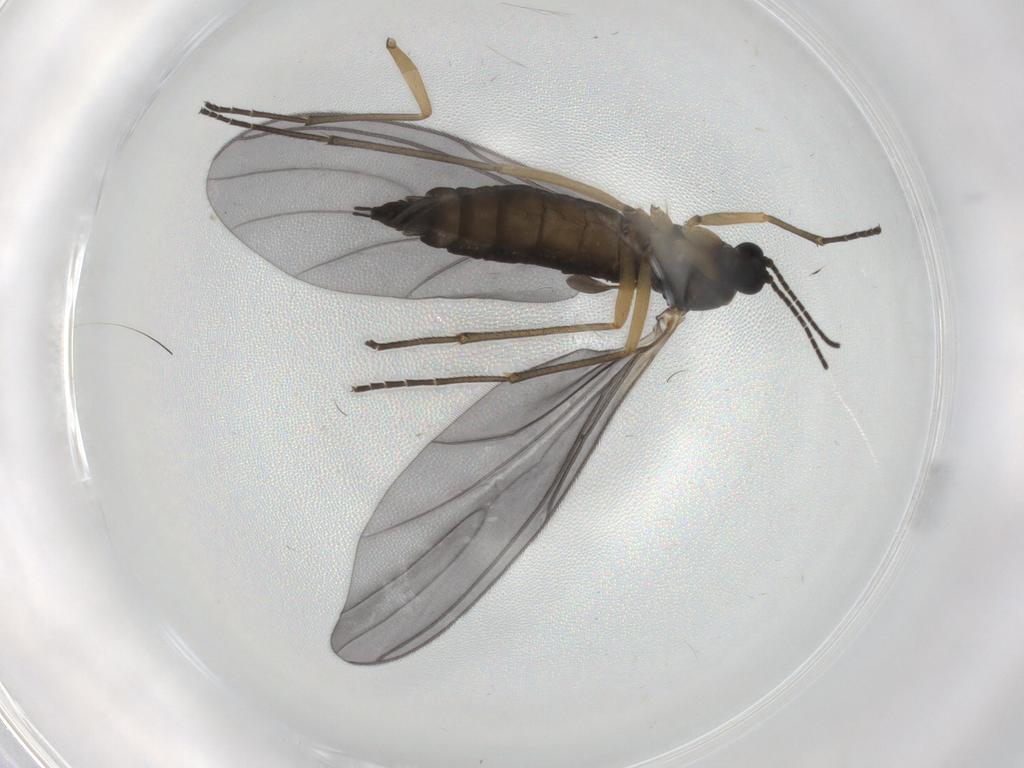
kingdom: Animalia
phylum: Arthropoda
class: Insecta
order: Diptera
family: Sciaridae
